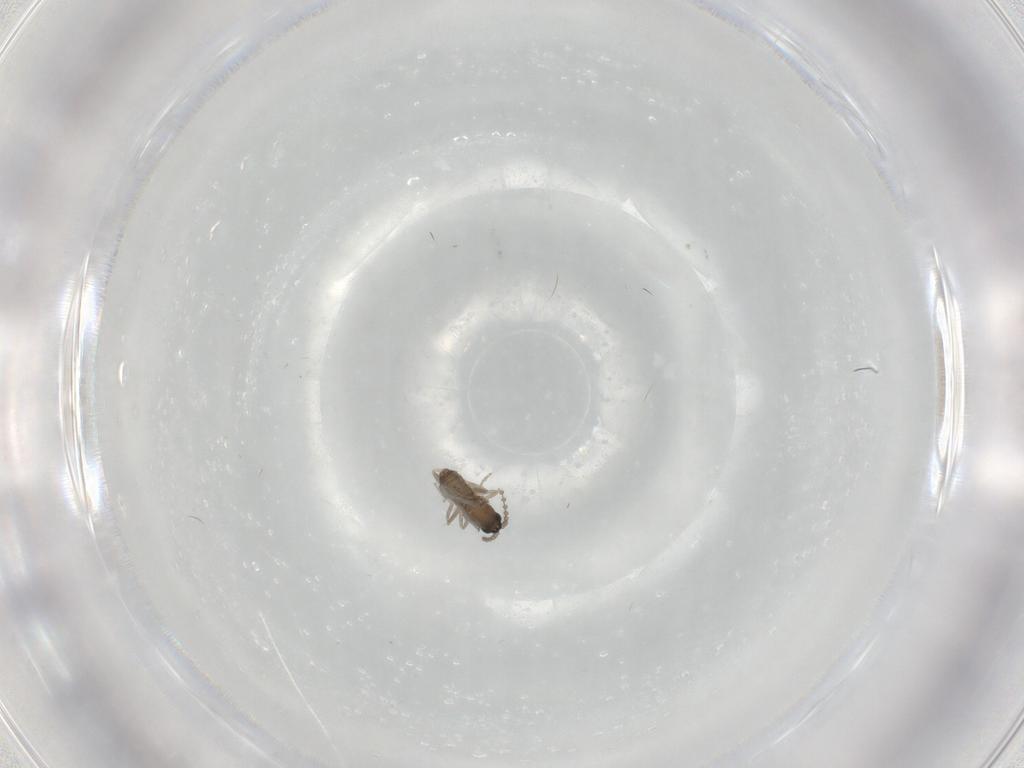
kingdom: Animalia
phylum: Arthropoda
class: Insecta
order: Diptera
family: Cecidomyiidae
